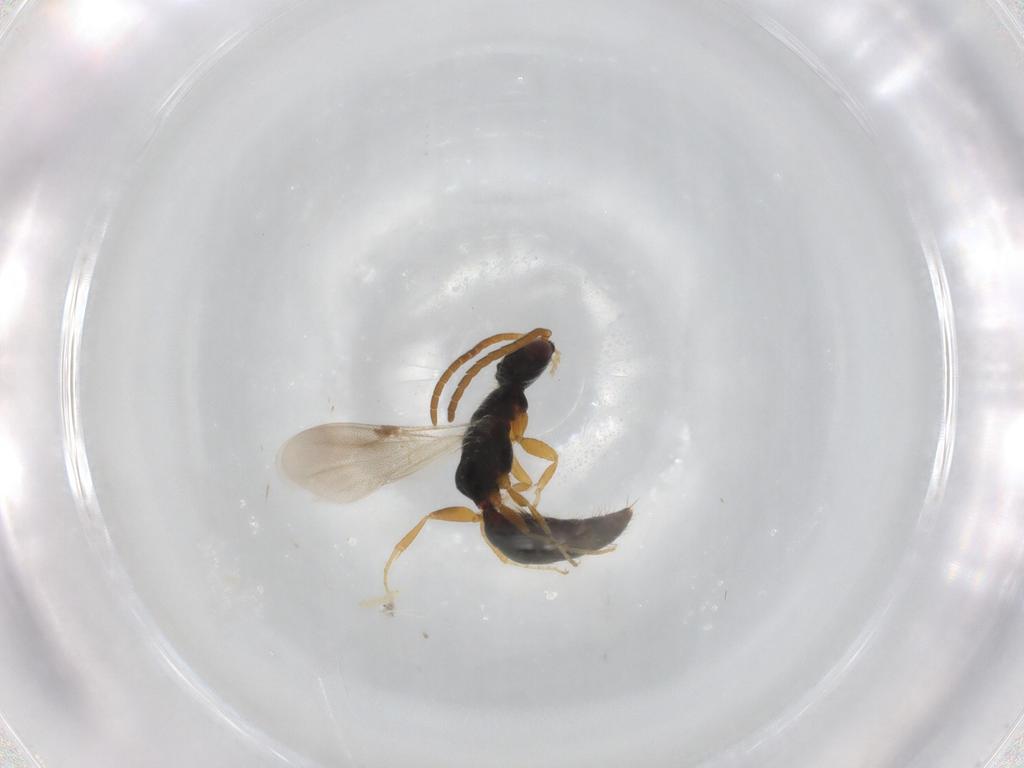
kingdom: Animalia
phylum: Arthropoda
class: Insecta
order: Hymenoptera
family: Bethylidae
